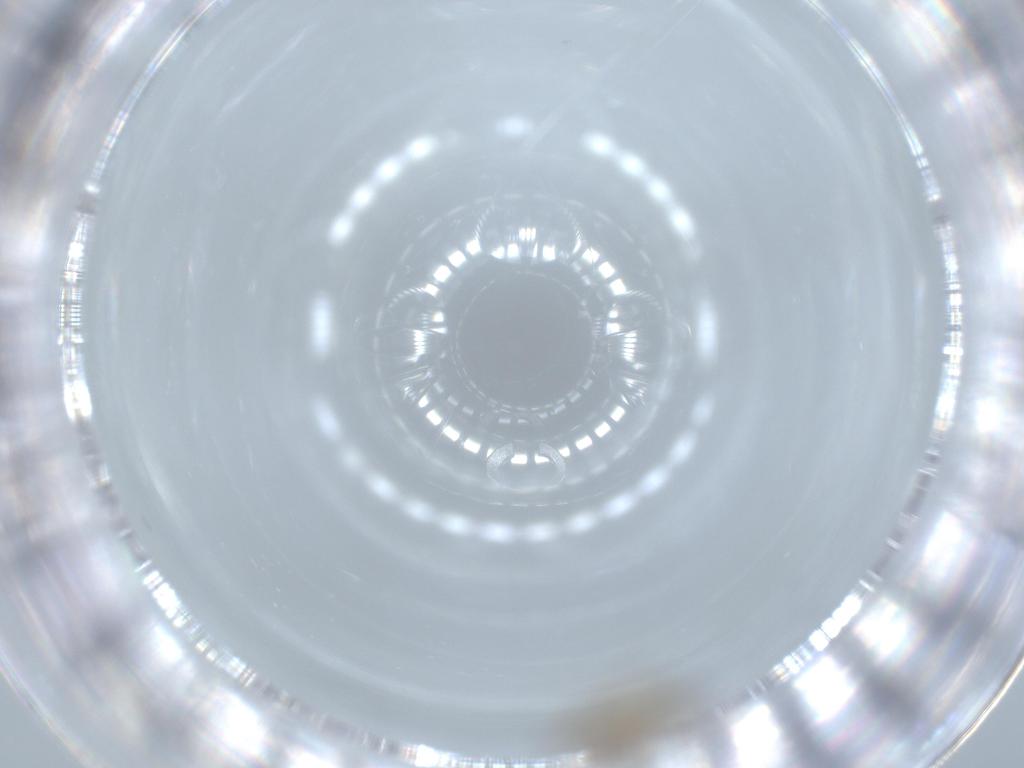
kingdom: Animalia
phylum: Arthropoda
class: Insecta
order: Diptera
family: Ceratopogonidae
